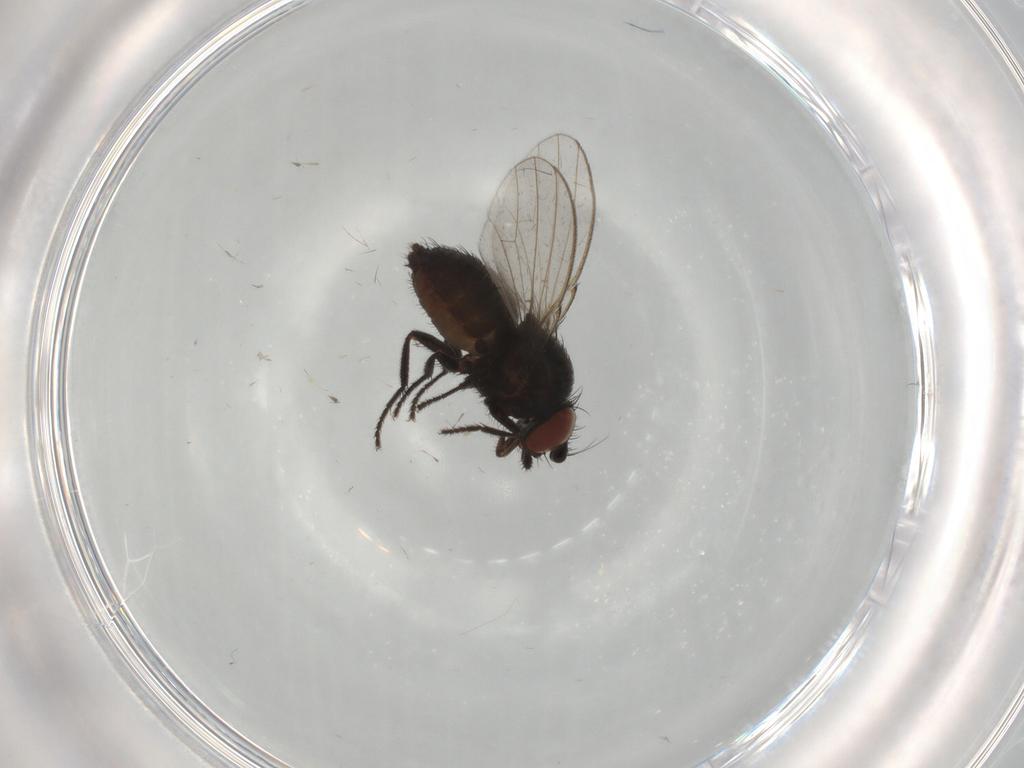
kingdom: Animalia
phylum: Arthropoda
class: Insecta
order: Diptera
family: Milichiidae
